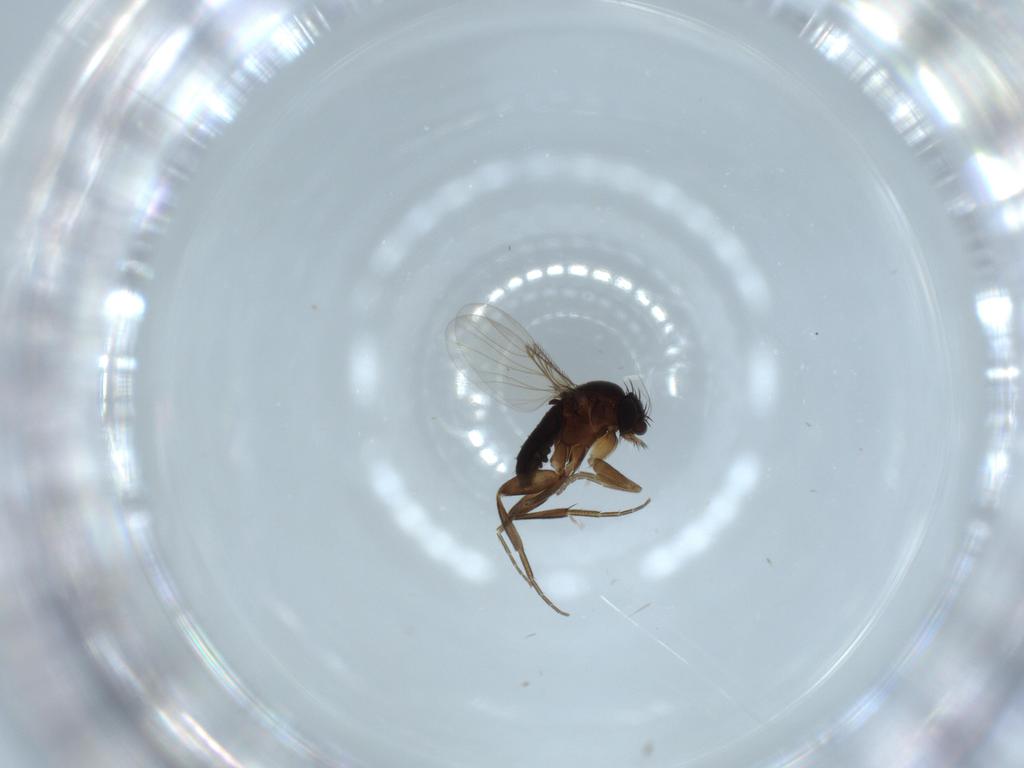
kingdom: Animalia
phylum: Arthropoda
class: Insecta
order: Diptera
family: Phoridae
